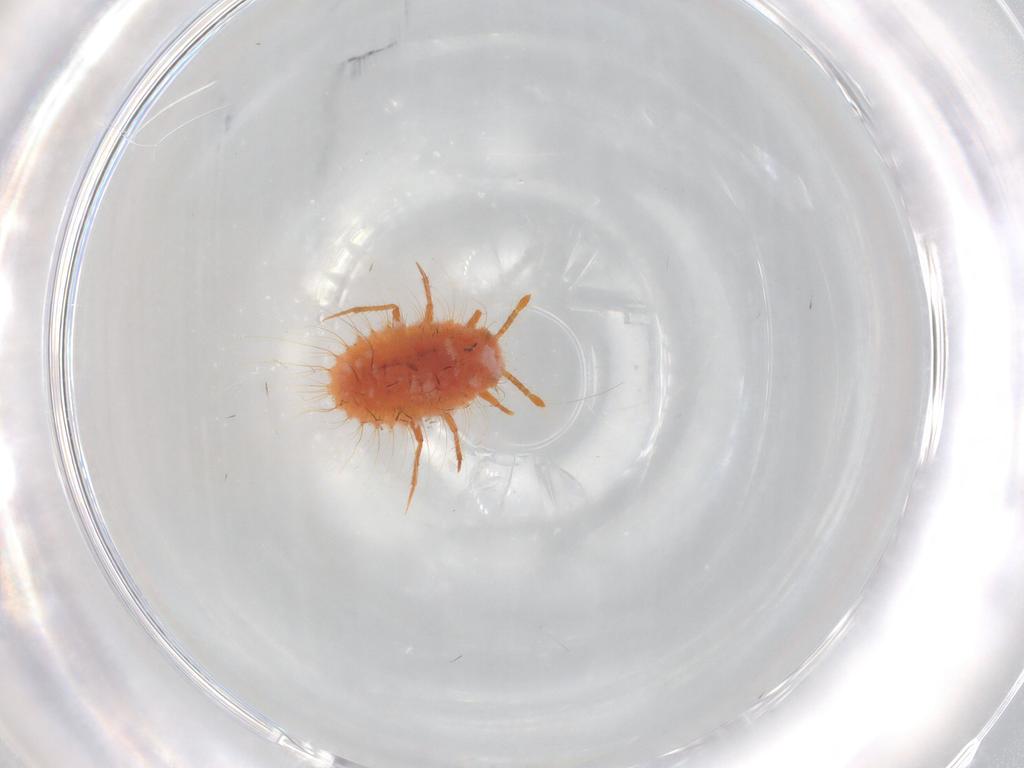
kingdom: Animalia
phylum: Arthropoda
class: Insecta
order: Hemiptera
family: Coccoidea_incertae_sedis
